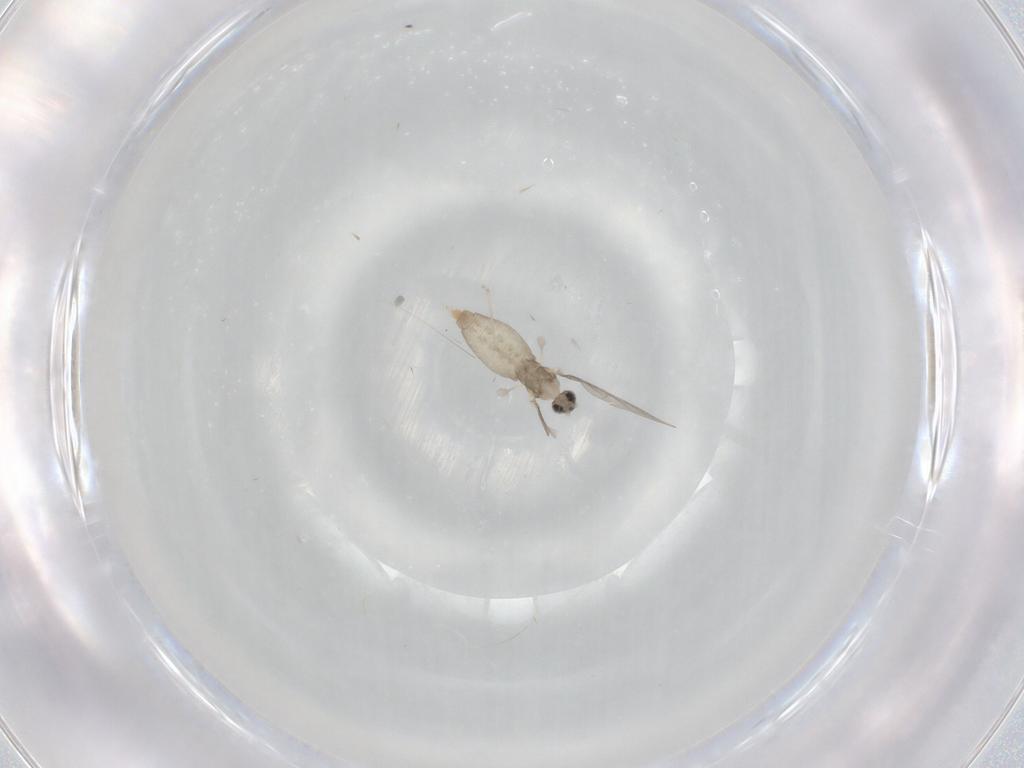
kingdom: Animalia
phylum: Arthropoda
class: Insecta
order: Diptera
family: Cecidomyiidae
